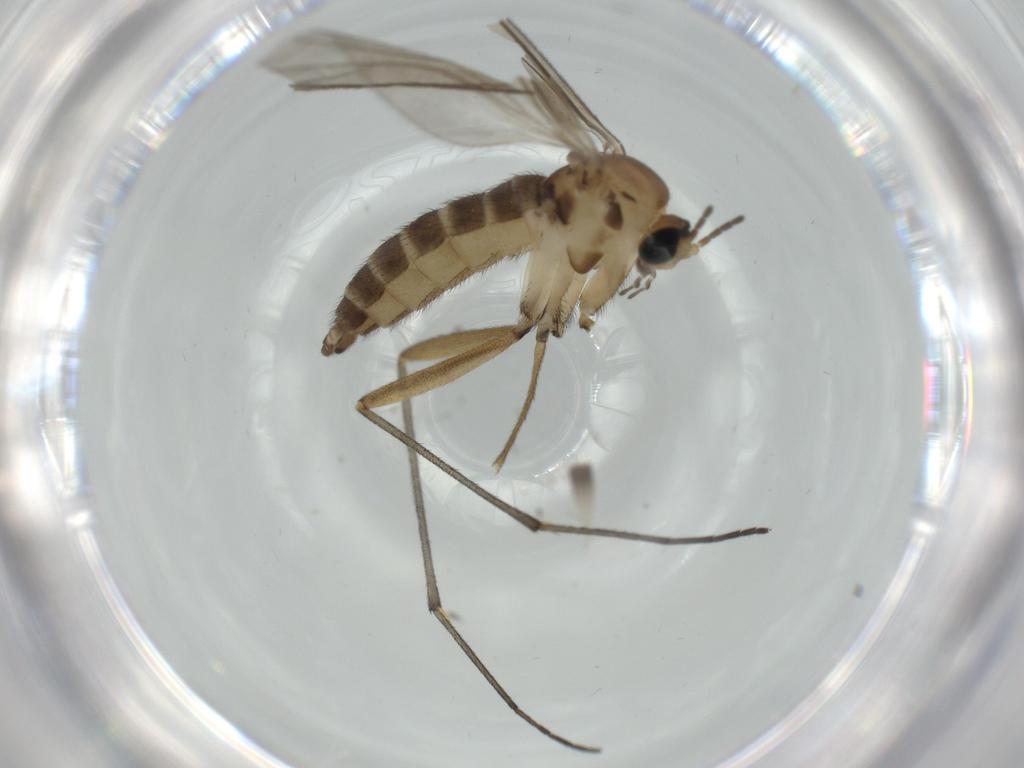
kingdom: Animalia
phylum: Arthropoda
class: Insecta
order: Diptera
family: Sciaridae
